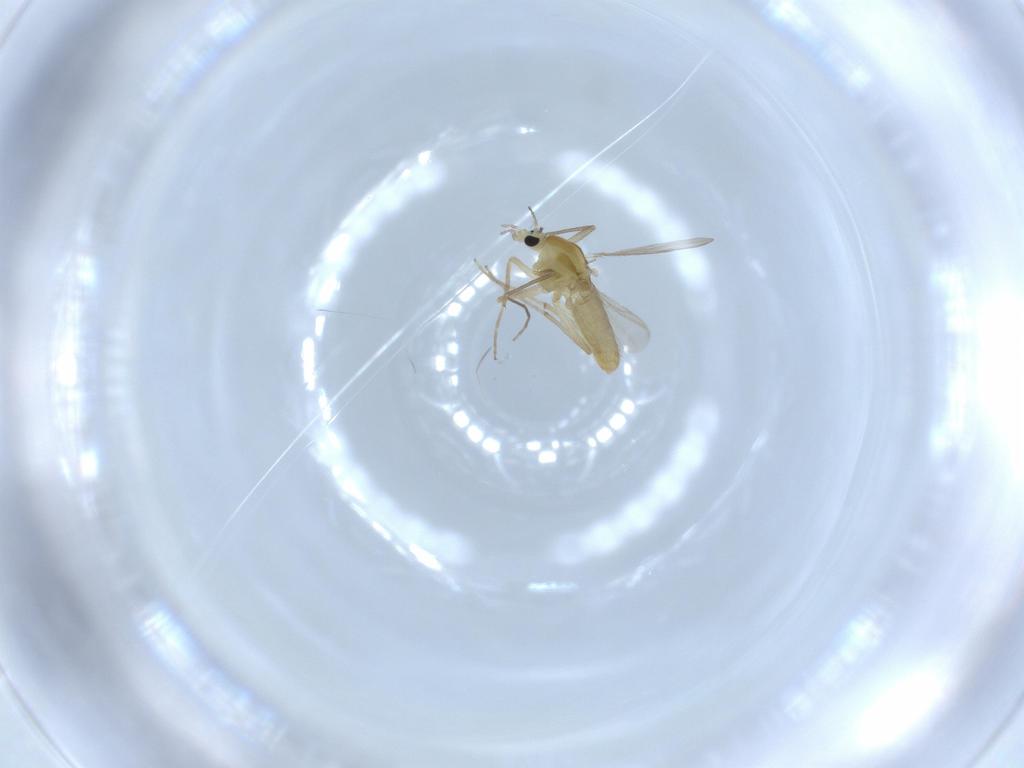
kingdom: Animalia
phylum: Arthropoda
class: Insecta
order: Diptera
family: Chironomidae
